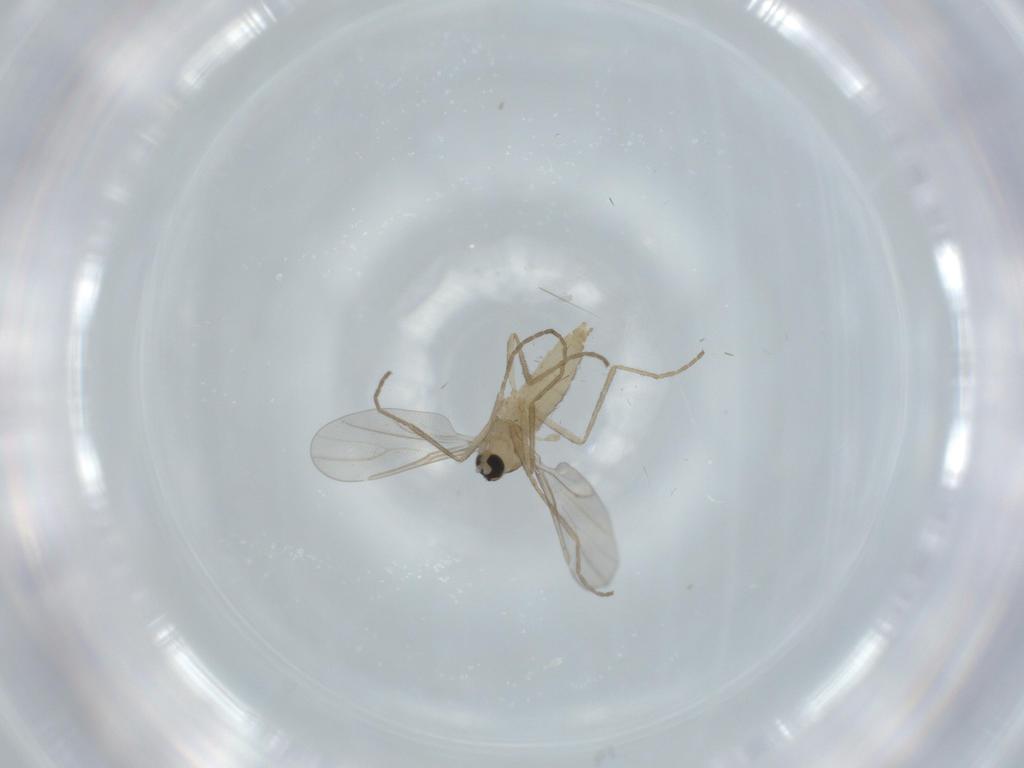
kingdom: Animalia
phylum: Arthropoda
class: Insecta
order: Diptera
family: Cecidomyiidae
